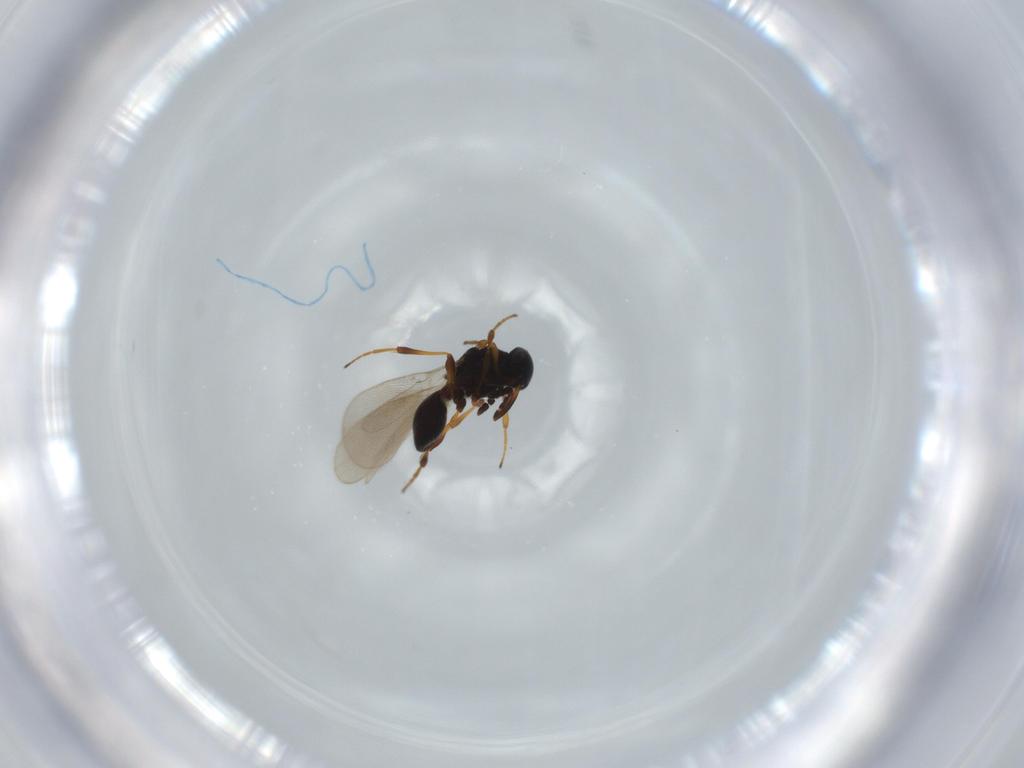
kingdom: Animalia
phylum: Arthropoda
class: Insecta
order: Hymenoptera
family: Platygastridae
